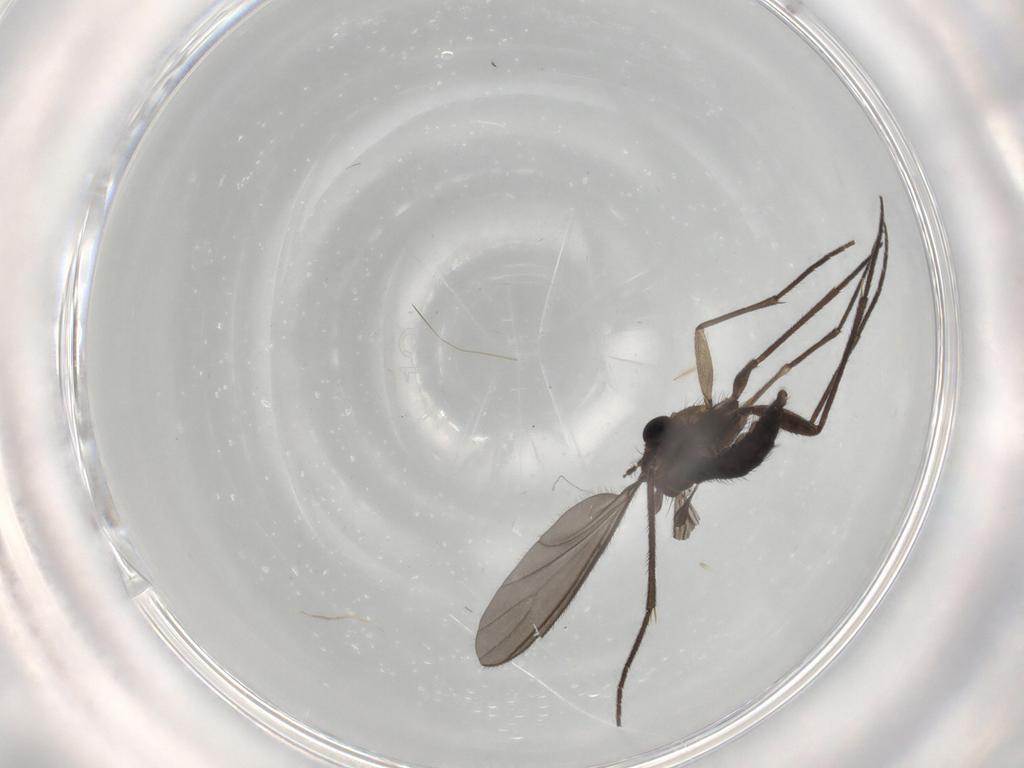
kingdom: Animalia
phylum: Arthropoda
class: Insecta
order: Diptera
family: Sciaridae
